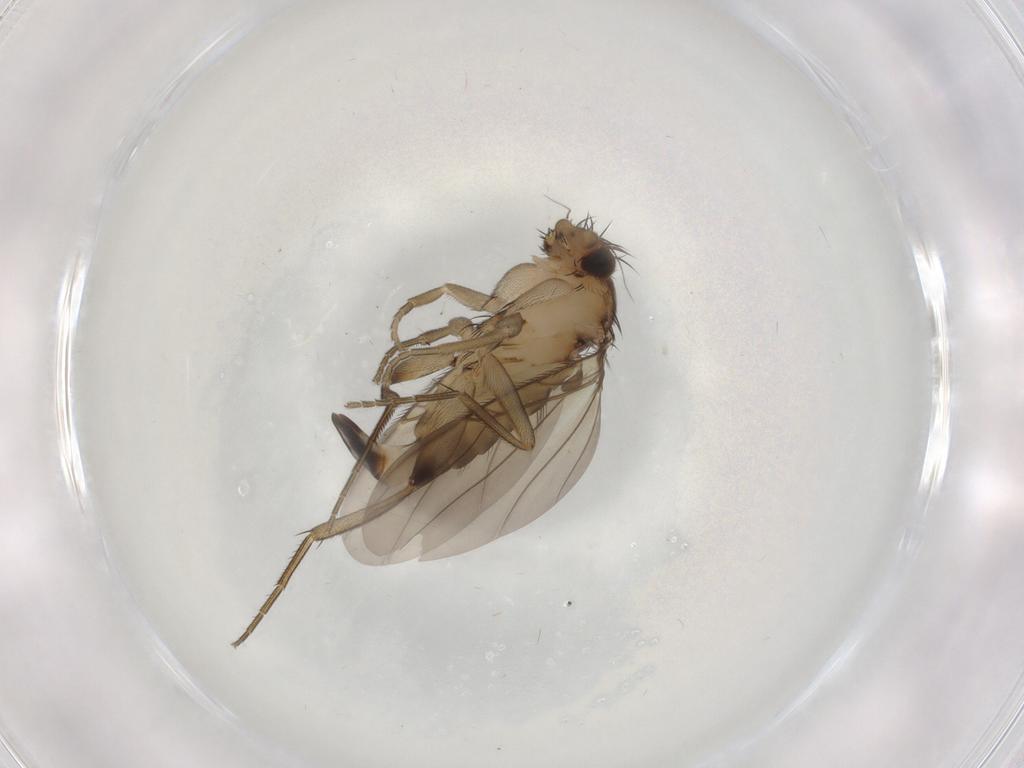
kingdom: Animalia
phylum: Arthropoda
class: Insecta
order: Diptera
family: Phoridae
